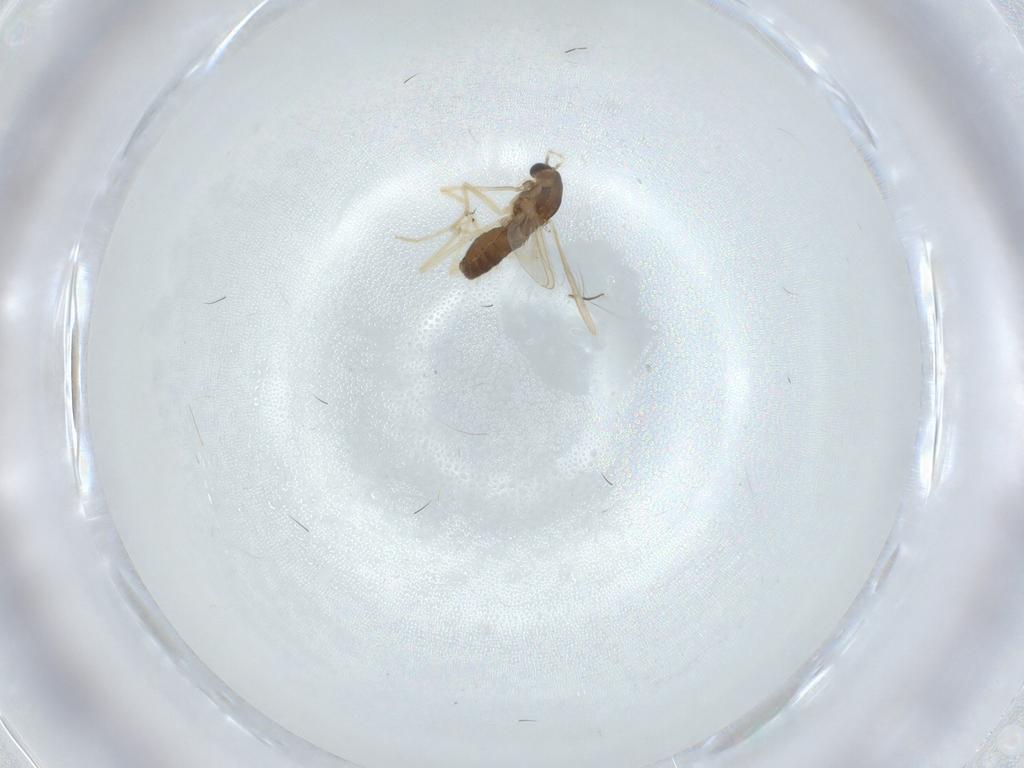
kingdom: Animalia
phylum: Arthropoda
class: Insecta
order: Diptera
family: Chironomidae
